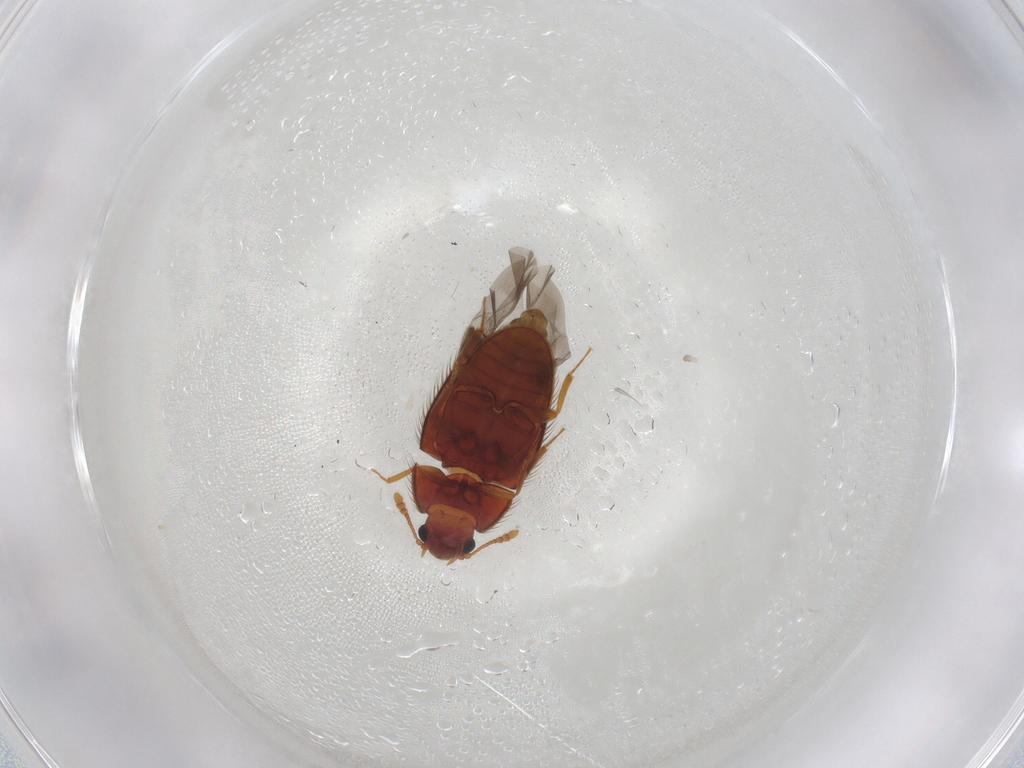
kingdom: Animalia
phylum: Arthropoda
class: Insecta
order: Coleoptera
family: Biphyllidae
